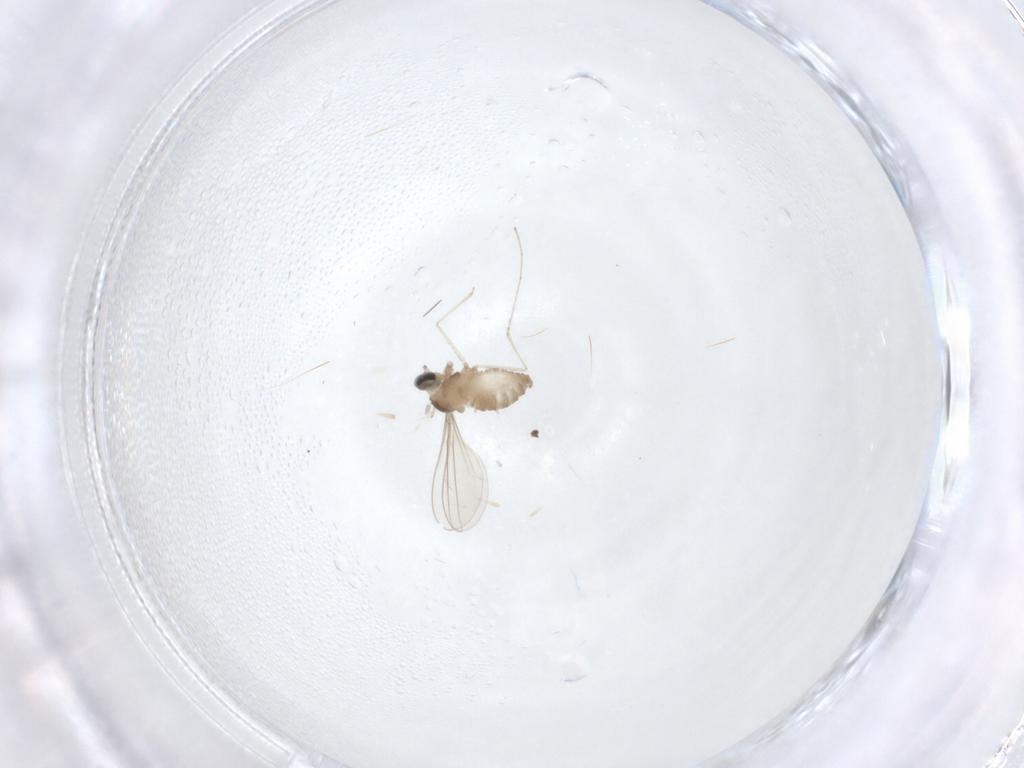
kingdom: Animalia
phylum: Arthropoda
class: Insecta
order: Diptera
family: Cecidomyiidae
